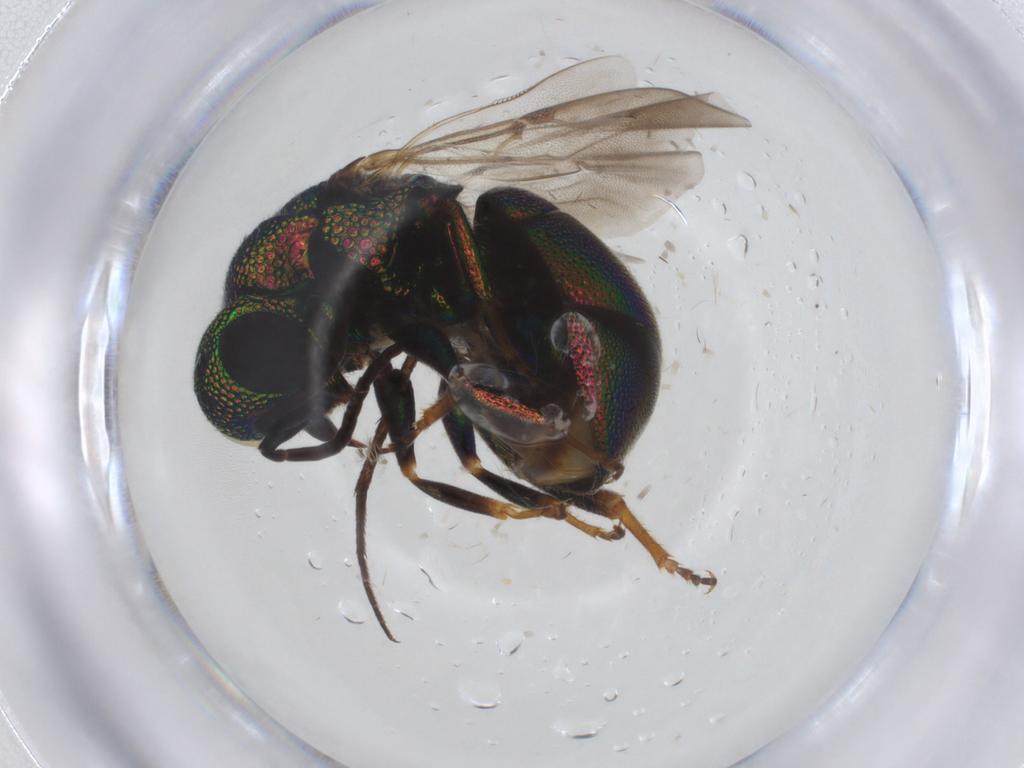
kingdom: Animalia
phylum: Arthropoda
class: Insecta
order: Hymenoptera
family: Chrysididae
